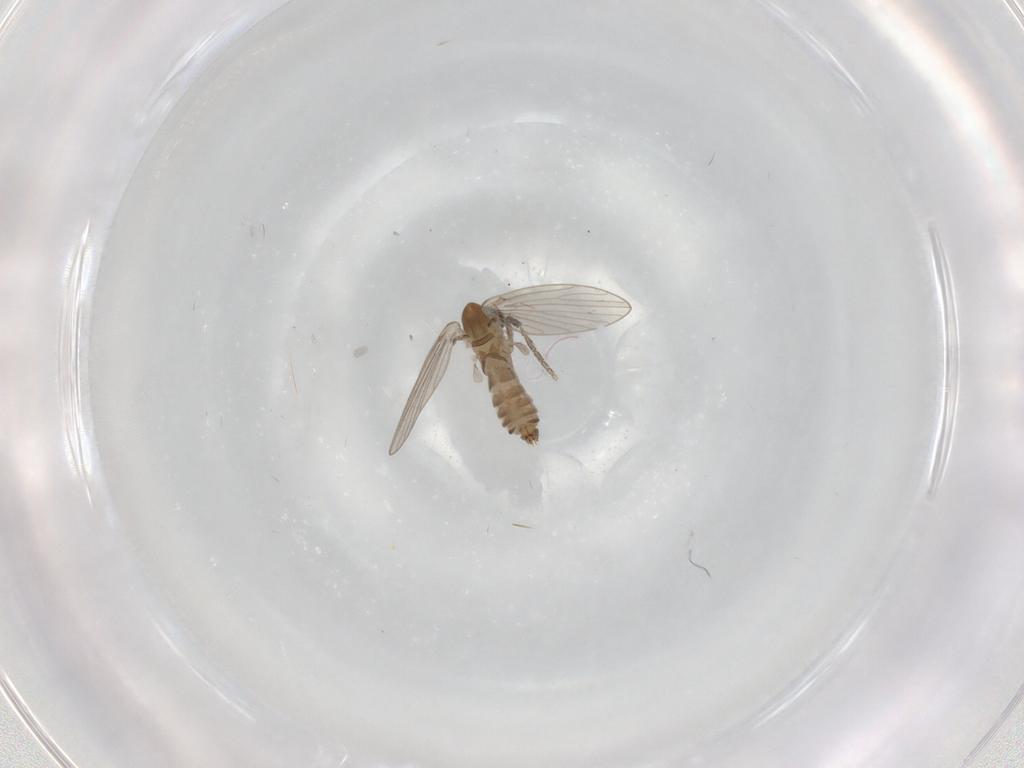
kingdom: Animalia
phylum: Arthropoda
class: Insecta
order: Diptera
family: Psychodidae
